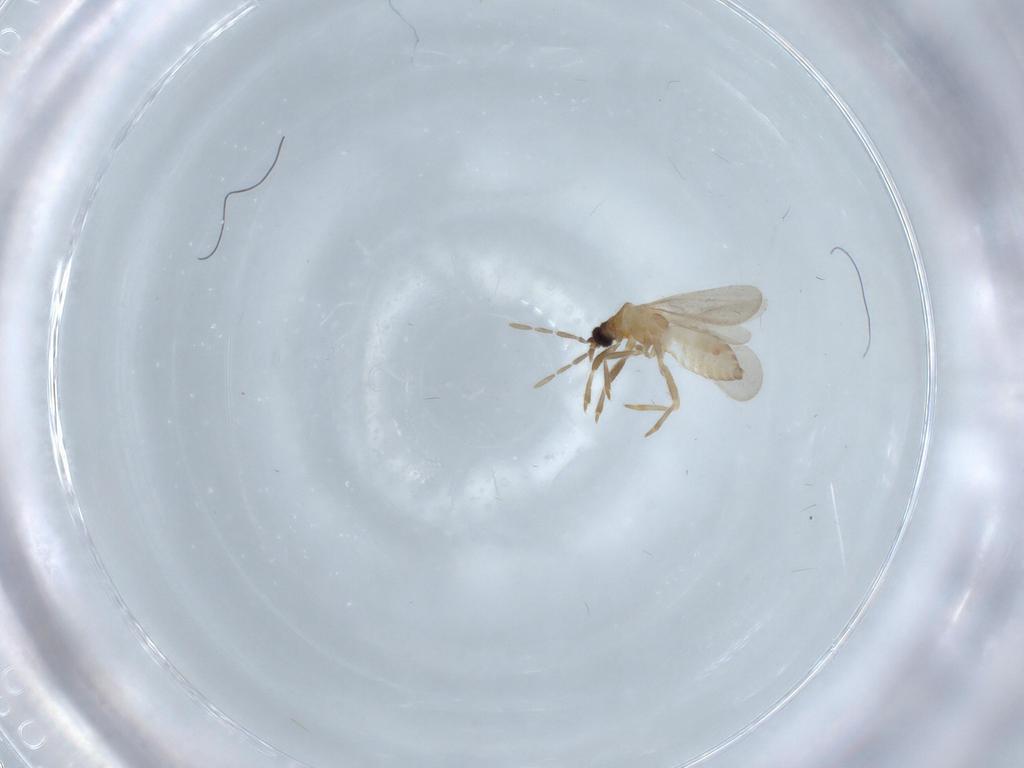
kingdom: Animalia
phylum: Arthropoda
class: Insecta
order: Hemiptera
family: Enicocephalidae
